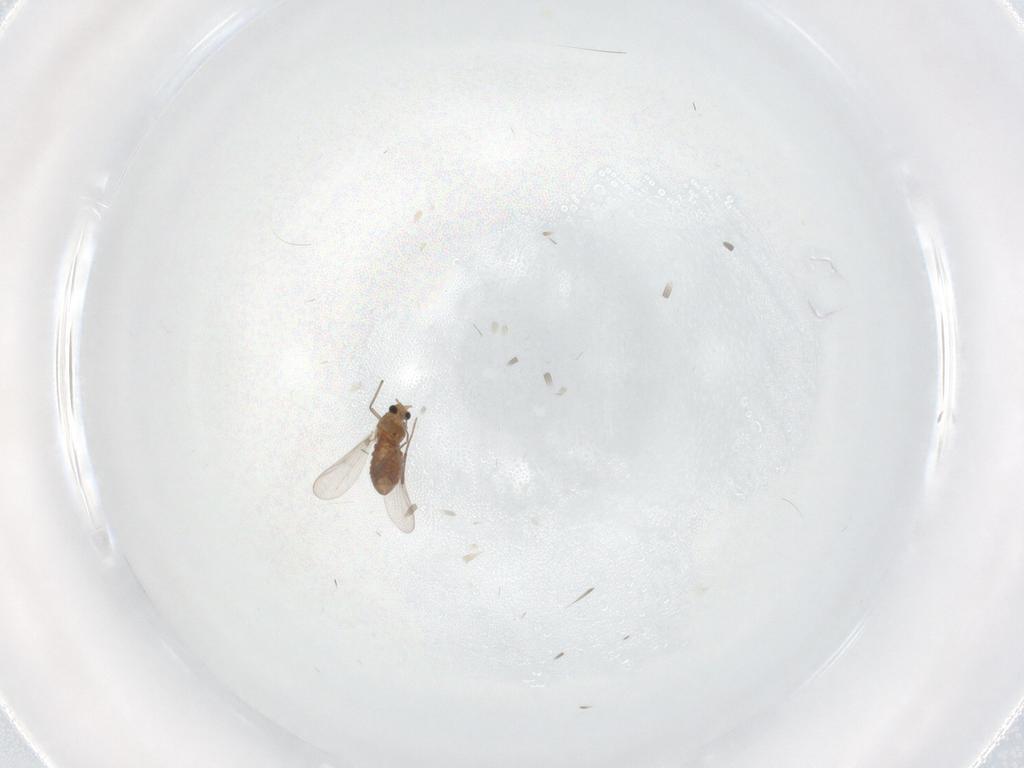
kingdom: Animalia
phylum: Arthropoda
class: Insecta
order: Diptera
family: Chironomidae
